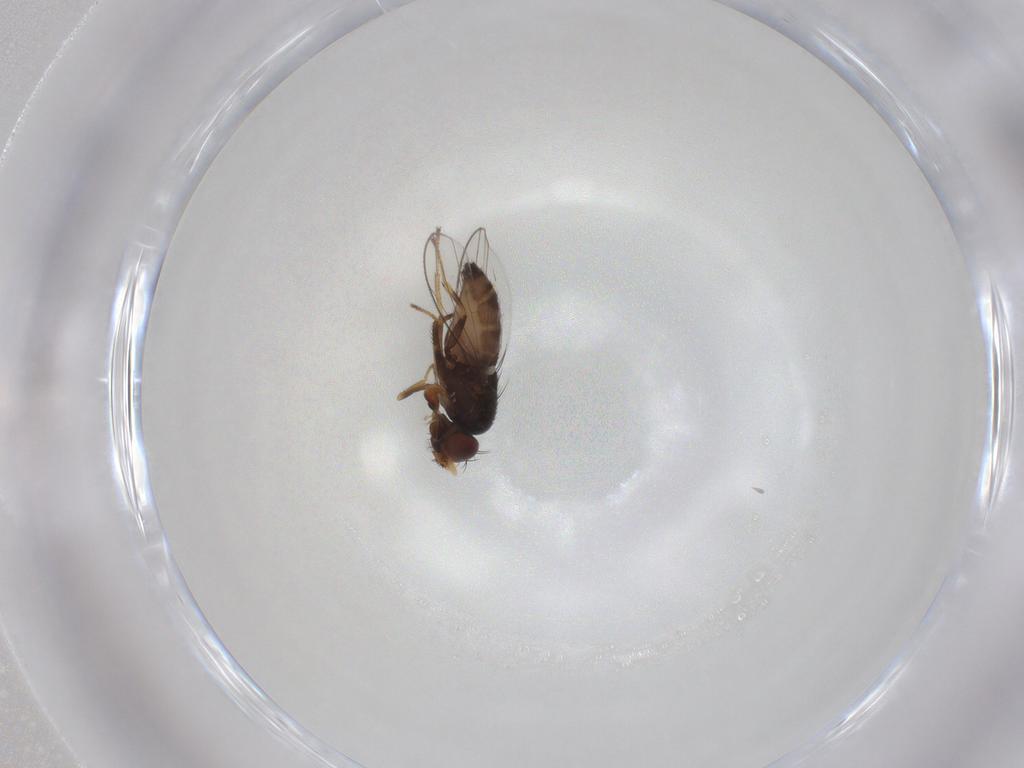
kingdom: Animalia
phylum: Arthropoda
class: Insecta
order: Diptera
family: Ephydridae
